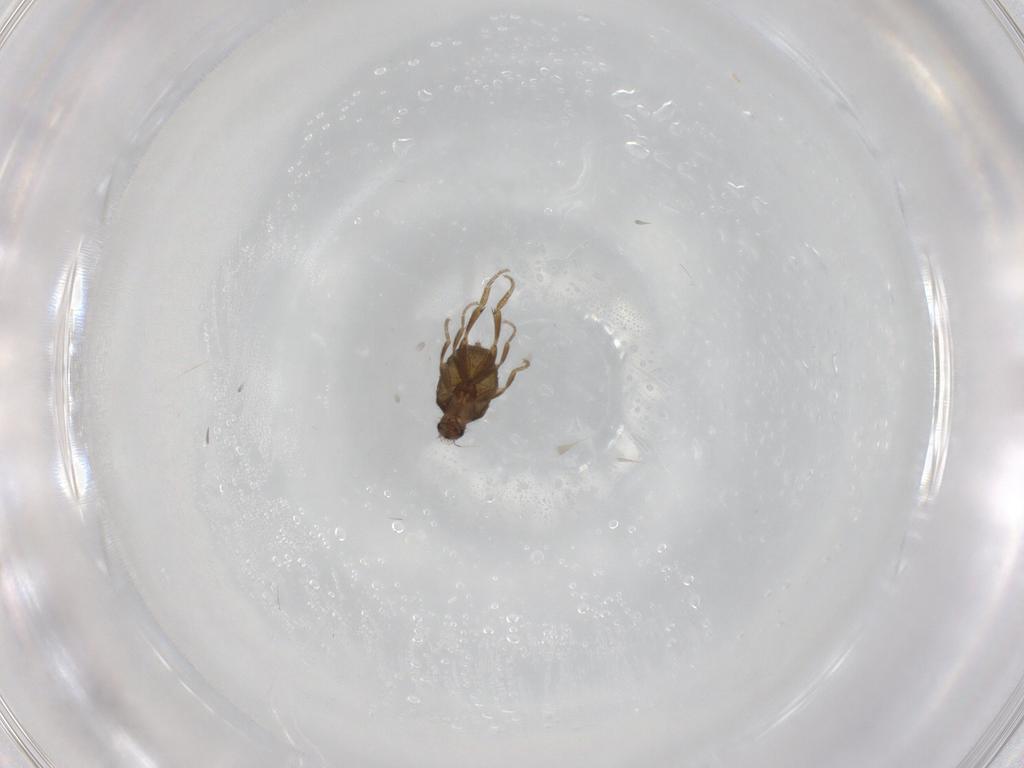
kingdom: Animalia
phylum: Arthropoda
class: Insecta
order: Diptera
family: Phoridae
